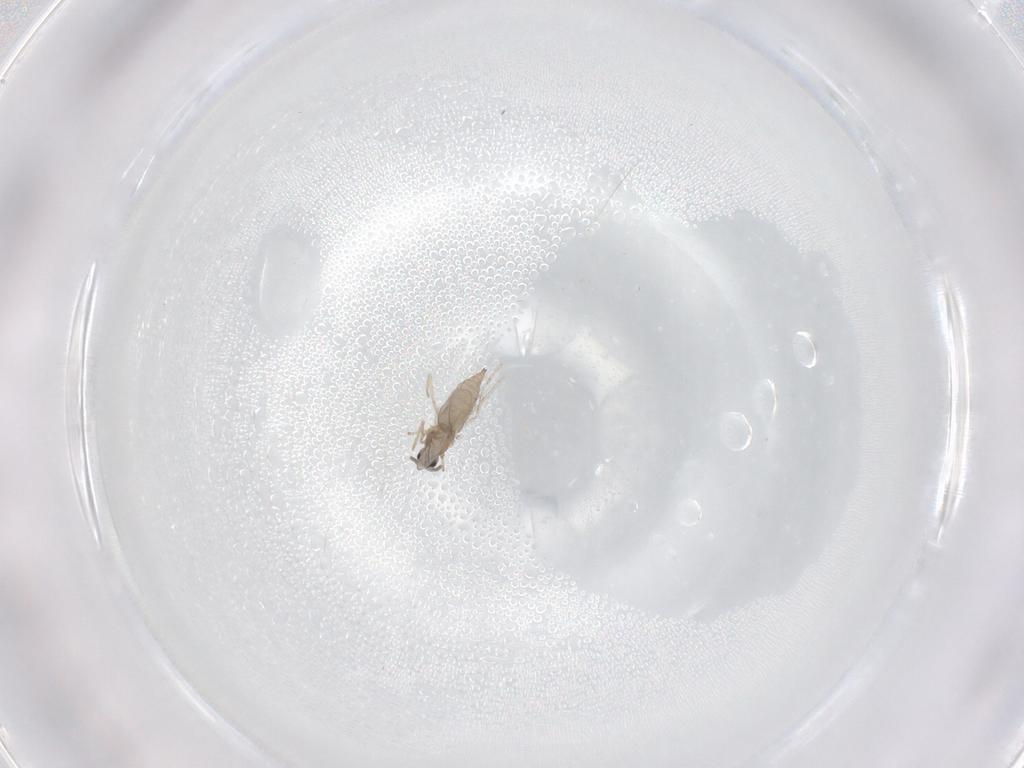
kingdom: Animalia
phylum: Arthropoda
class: Insecta
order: Diptera
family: Cecidomyiidae
